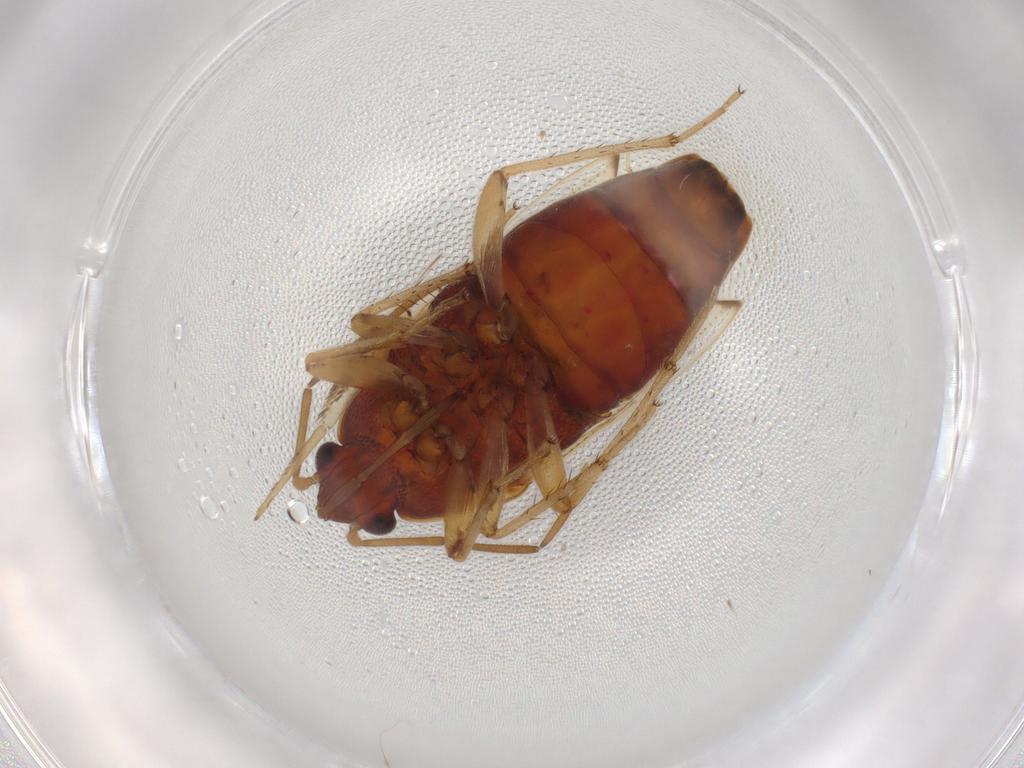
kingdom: Animalia
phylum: Arthropoda
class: Insecta
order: Hemiptera
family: Rhyparochromidae
